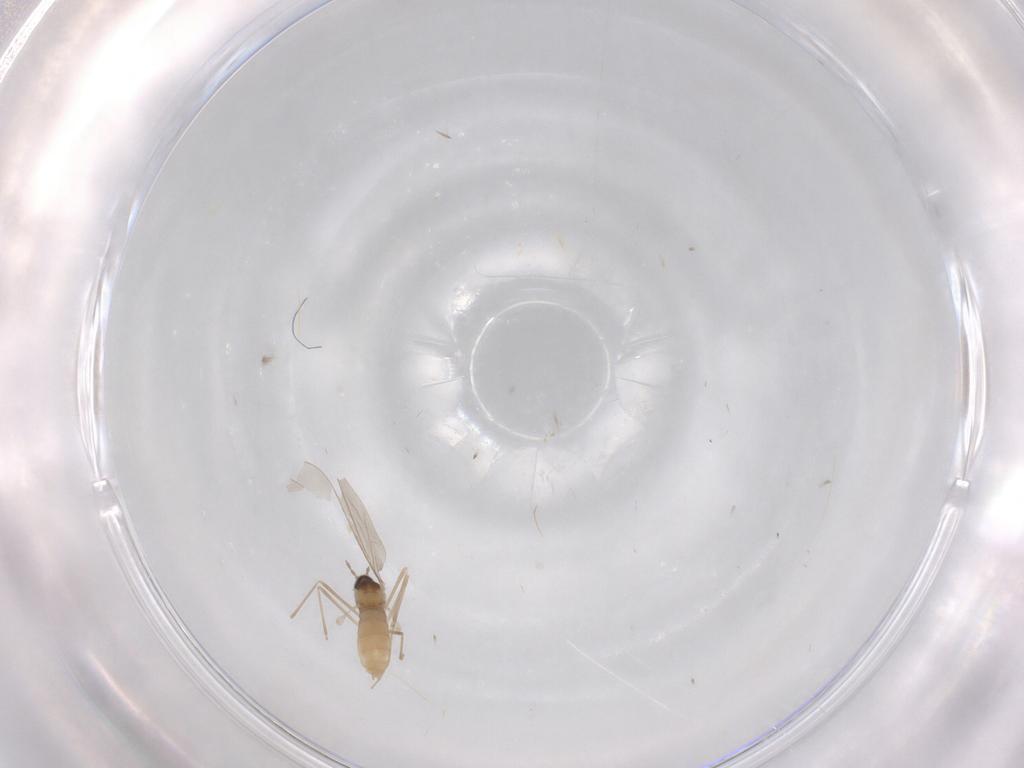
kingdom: Animalia
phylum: Arthropoda
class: Insecta
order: Diptera
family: Cecidomyiidae
